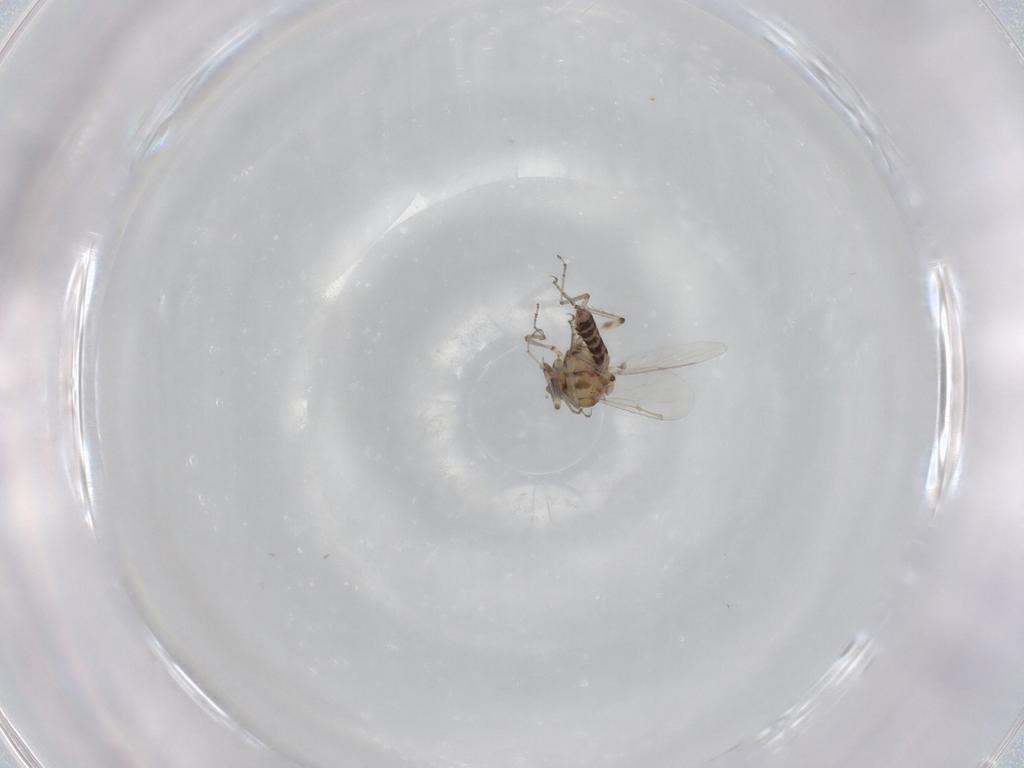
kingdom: Animalia
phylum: Arthropoda
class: Insecta
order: Diptera
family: Ceratopogonidae
